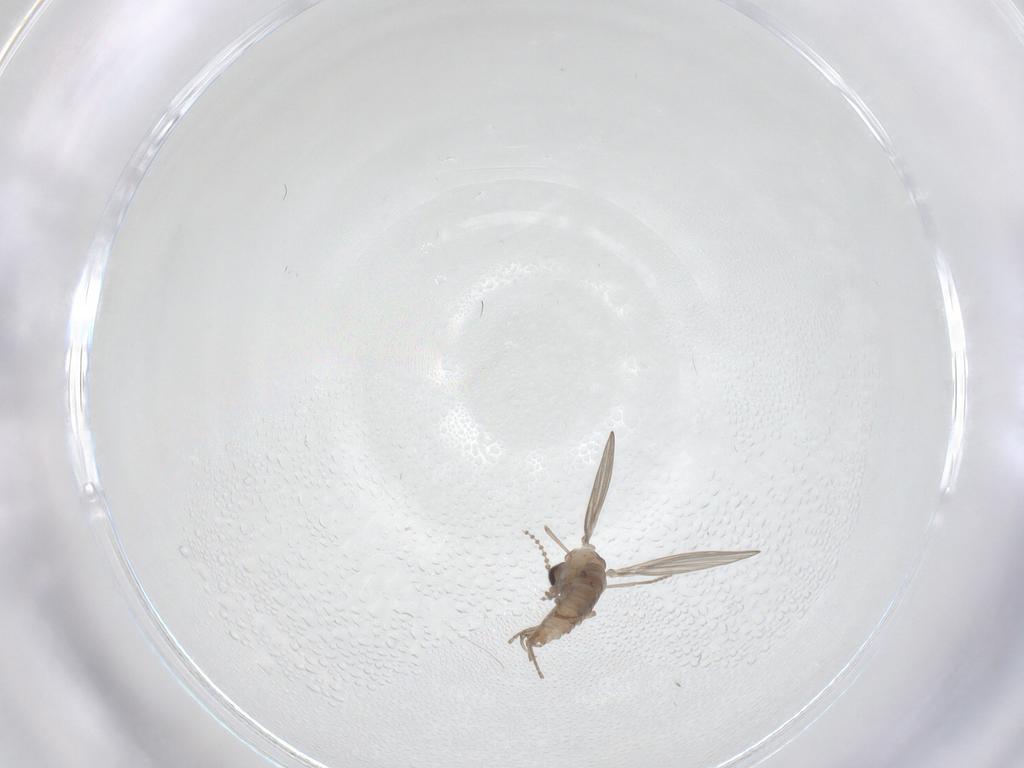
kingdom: Animalia
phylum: Arthropoda
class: Insecta
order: Diptera
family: Psychodidae
